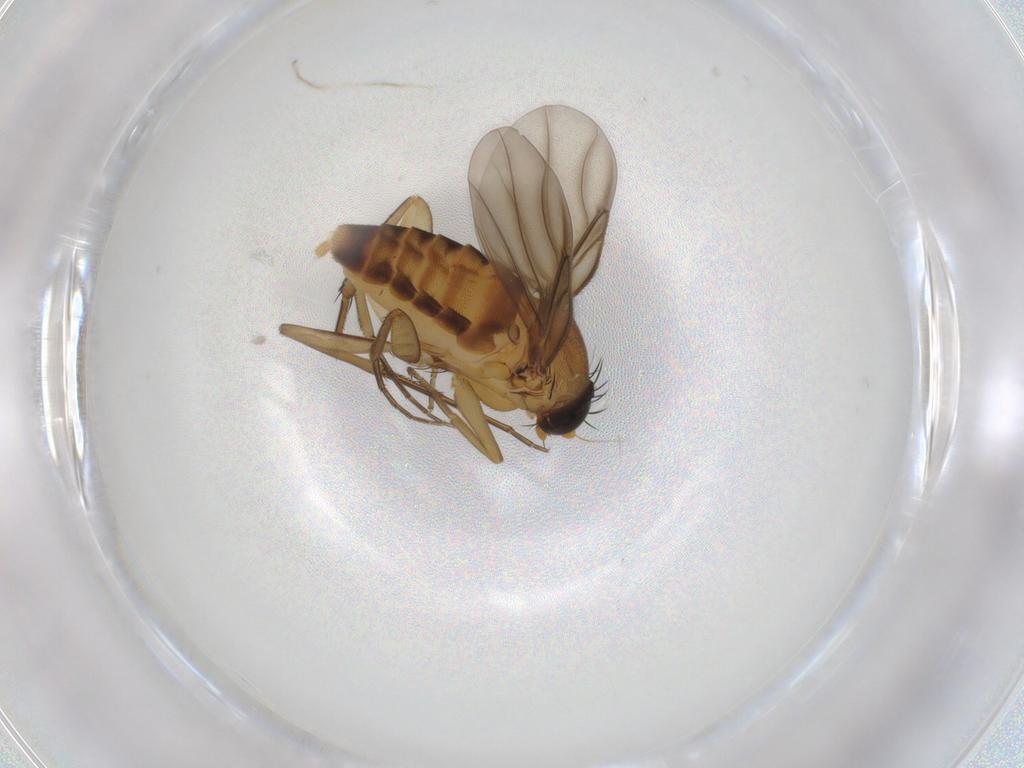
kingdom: Animalia
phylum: Arthropoda
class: Insecta
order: Diptera
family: Phoridae
